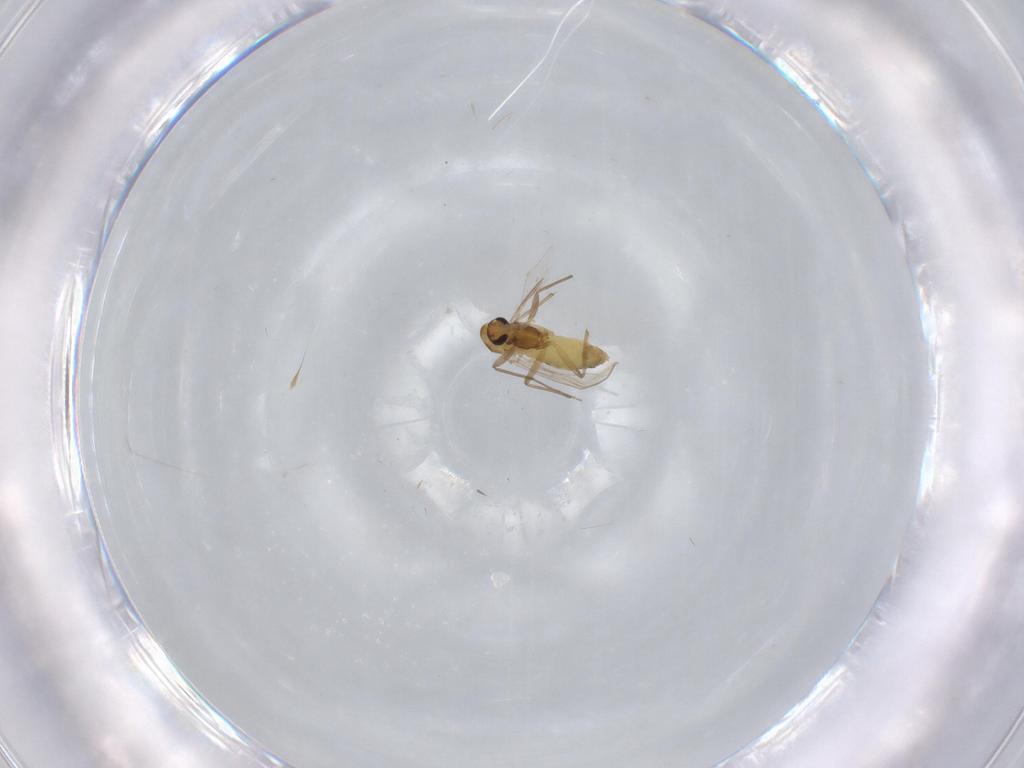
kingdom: Animalia
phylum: Arthropoda
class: Insecta
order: Diptera
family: Chironomidae
